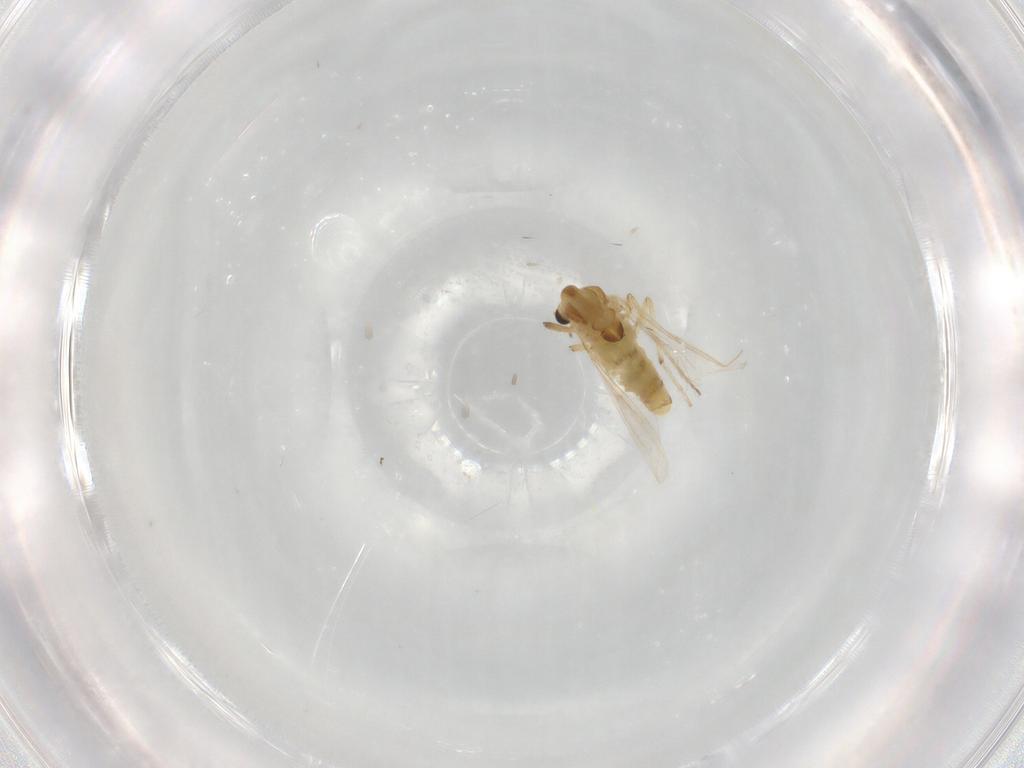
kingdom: Animalia
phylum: Arthropoda
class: Insecta
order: Diptera
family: Chironomidae
